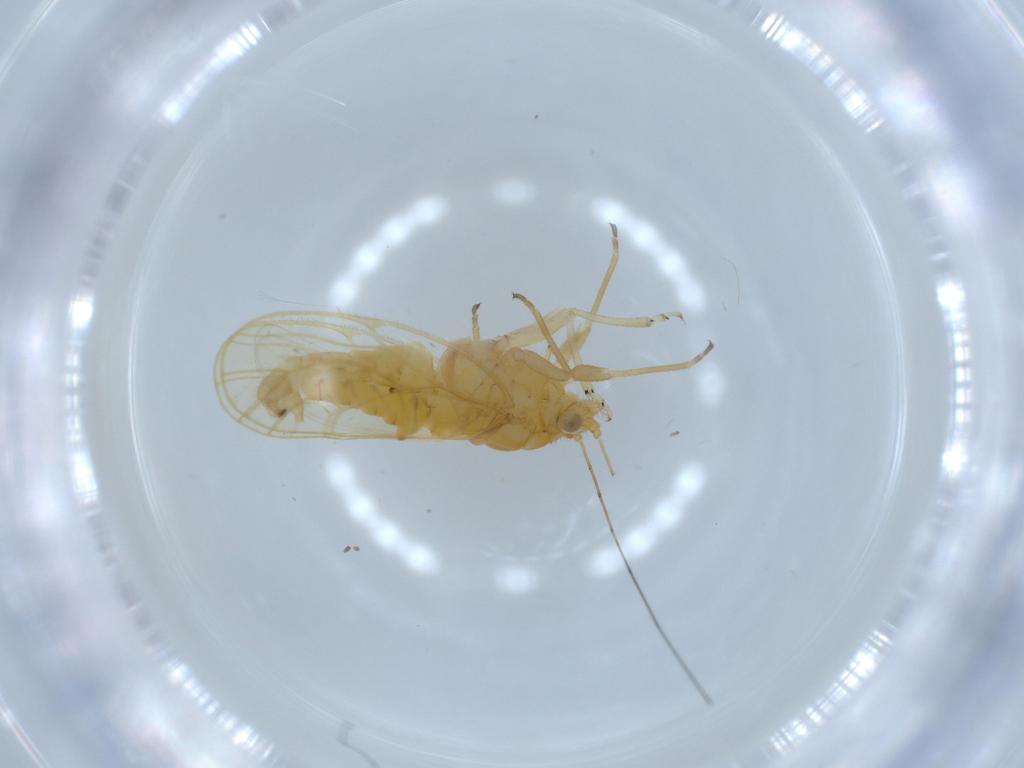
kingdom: Animalia
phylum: Arthropoda
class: Insecta
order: Hemiptera
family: Psyllidae
